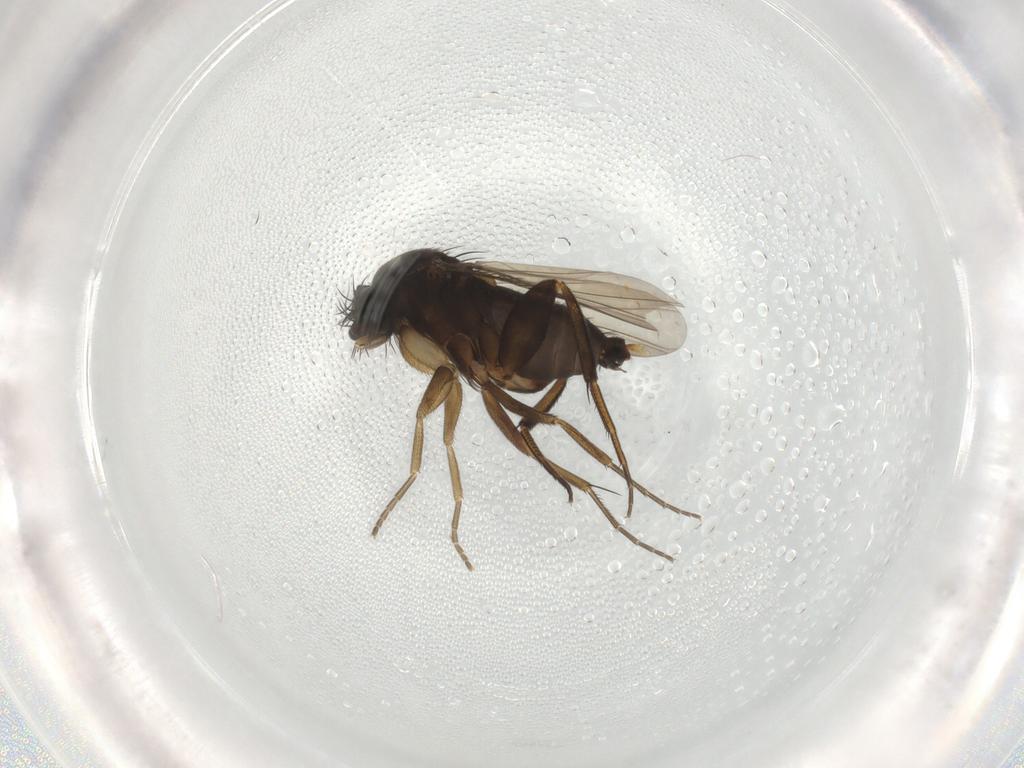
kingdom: Animalia
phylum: Arthropoda
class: Insecta
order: Diptera
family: Phoridae
